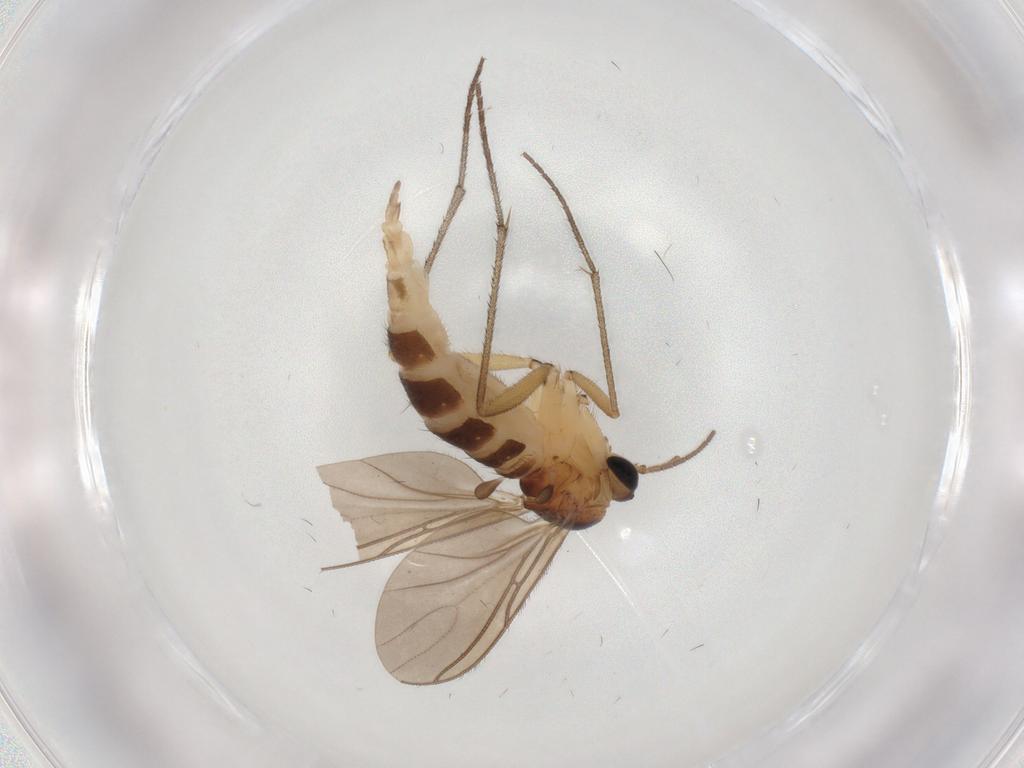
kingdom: Animalia
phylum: Arthropoda
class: Insecta
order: Diptera
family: Sciaridae
